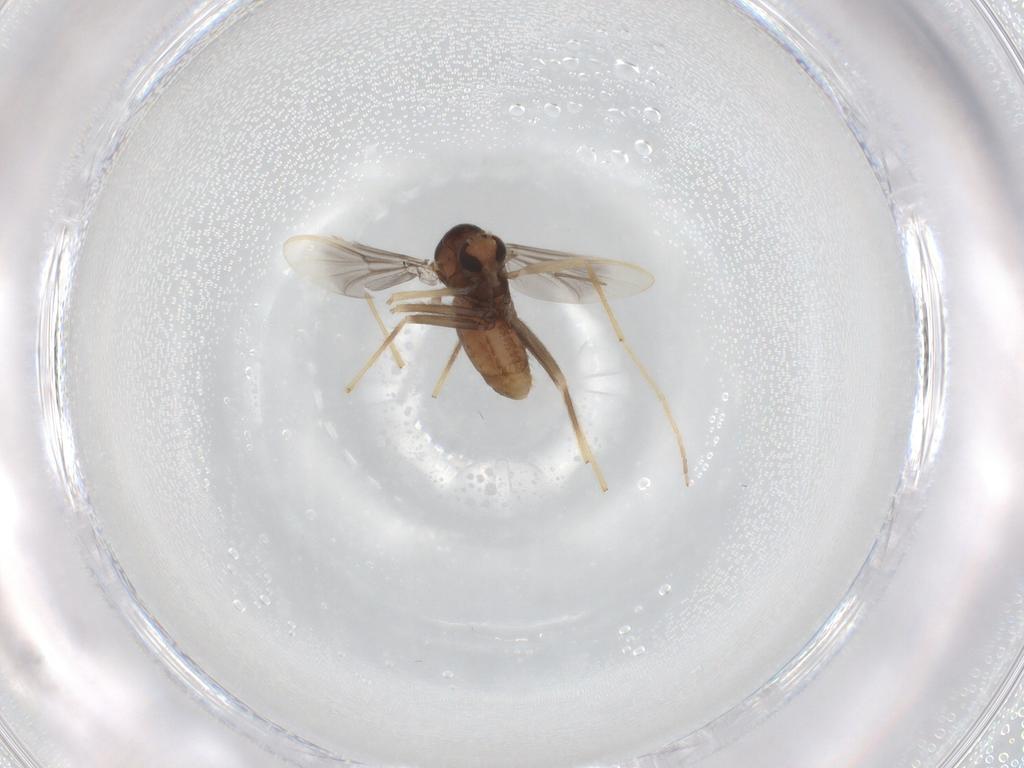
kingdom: Animalia
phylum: Arthropoda
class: Insecta
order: Diptera
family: Chironomidae
